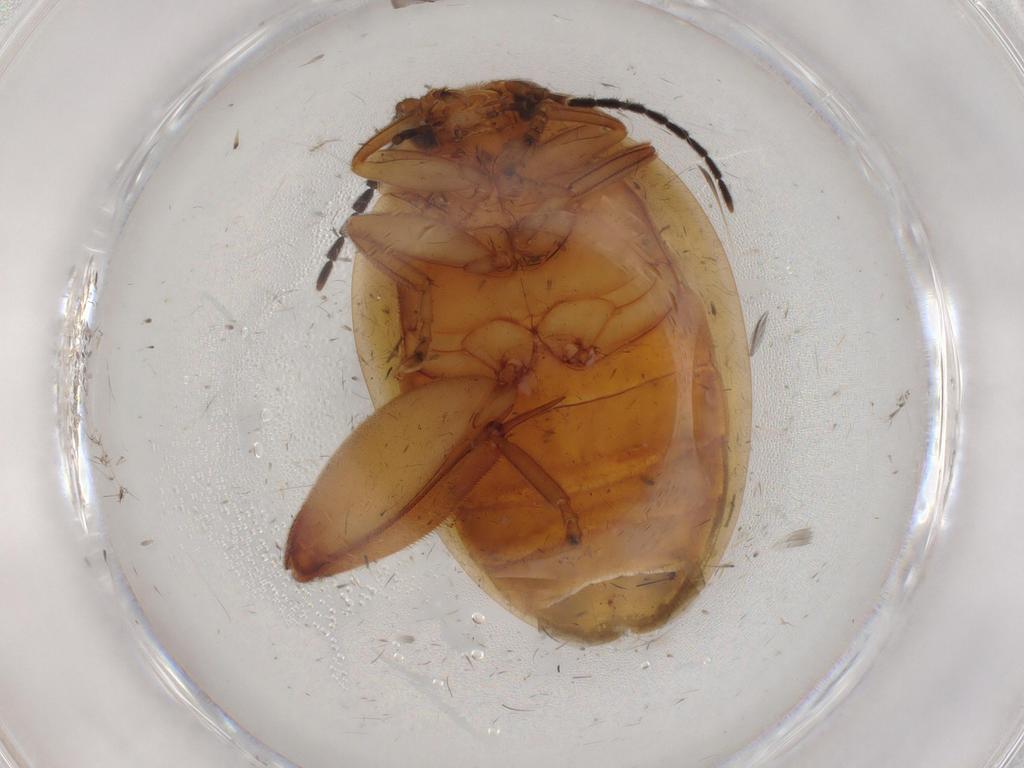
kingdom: Animalia
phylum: Arthropoda
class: Insecta
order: Coleoptera
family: Scirtidae
